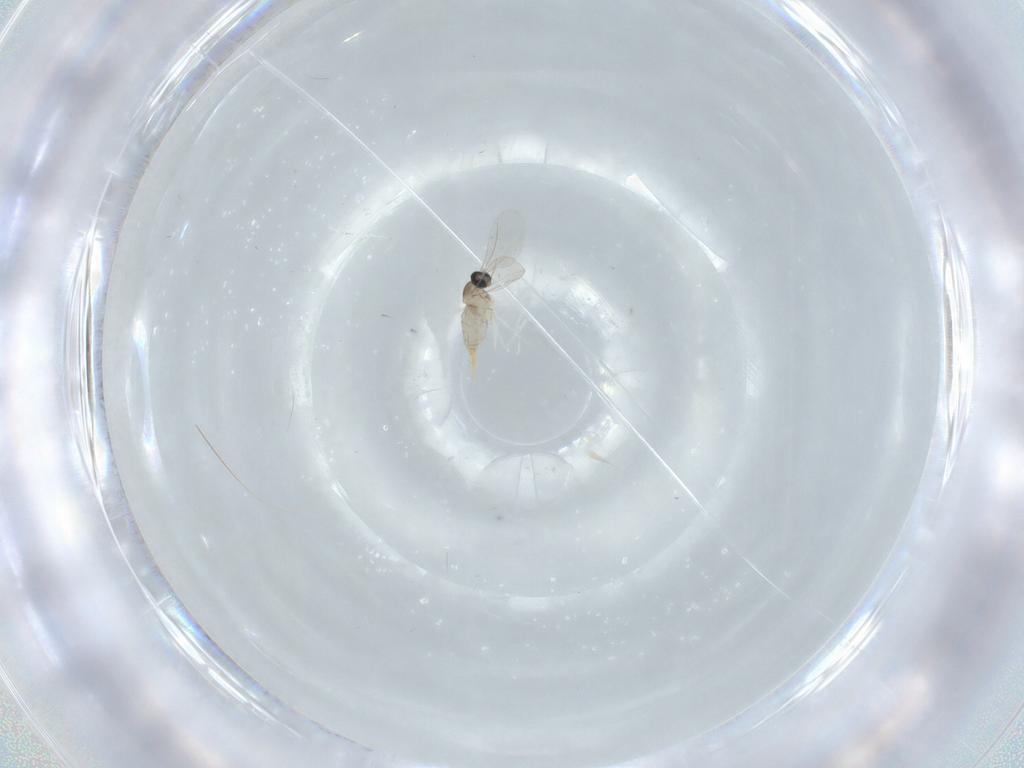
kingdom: Animalia
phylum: Arthropoda
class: Insecta
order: Diptera
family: Cecidomyiidae
